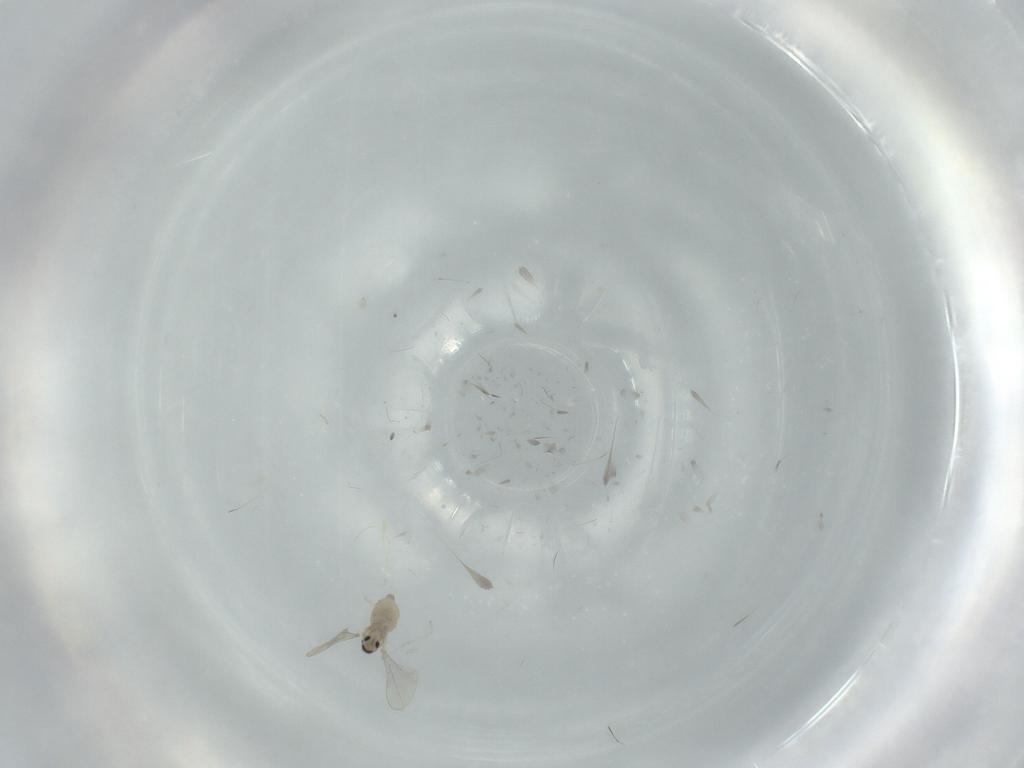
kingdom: Animalia
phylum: Arthropoda
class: Insecta
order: Diptera
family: Cecidomyiidae
